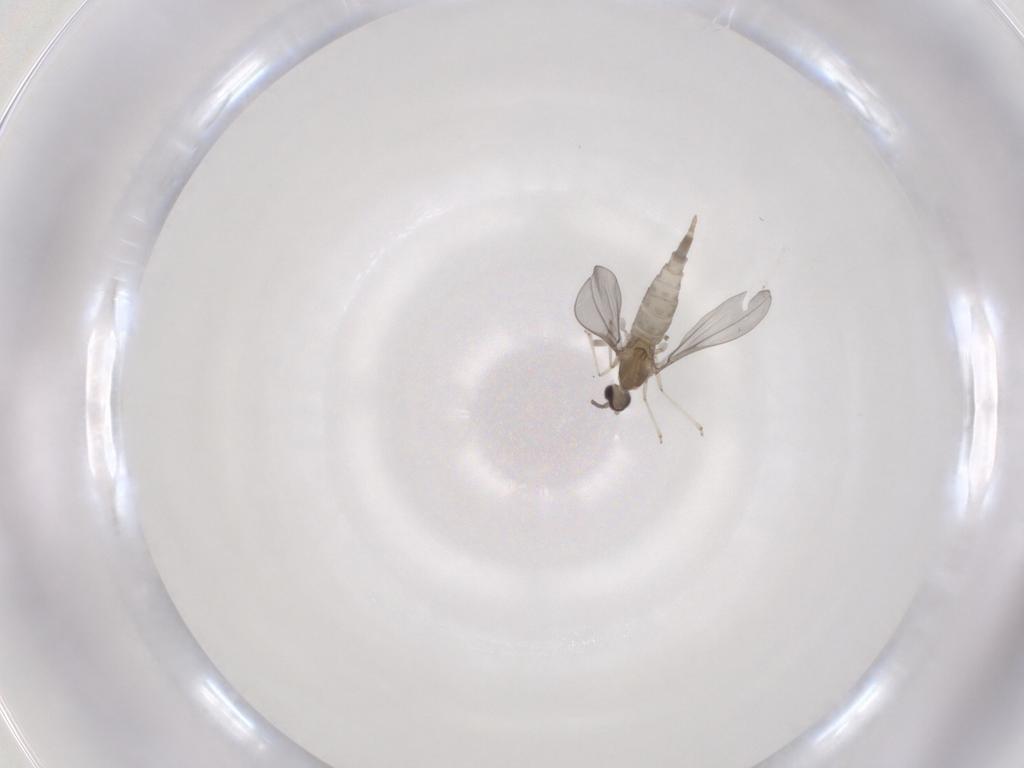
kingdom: Animalia
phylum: Arthropoda
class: Insecta
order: Diptera
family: Cecidomyiidae
